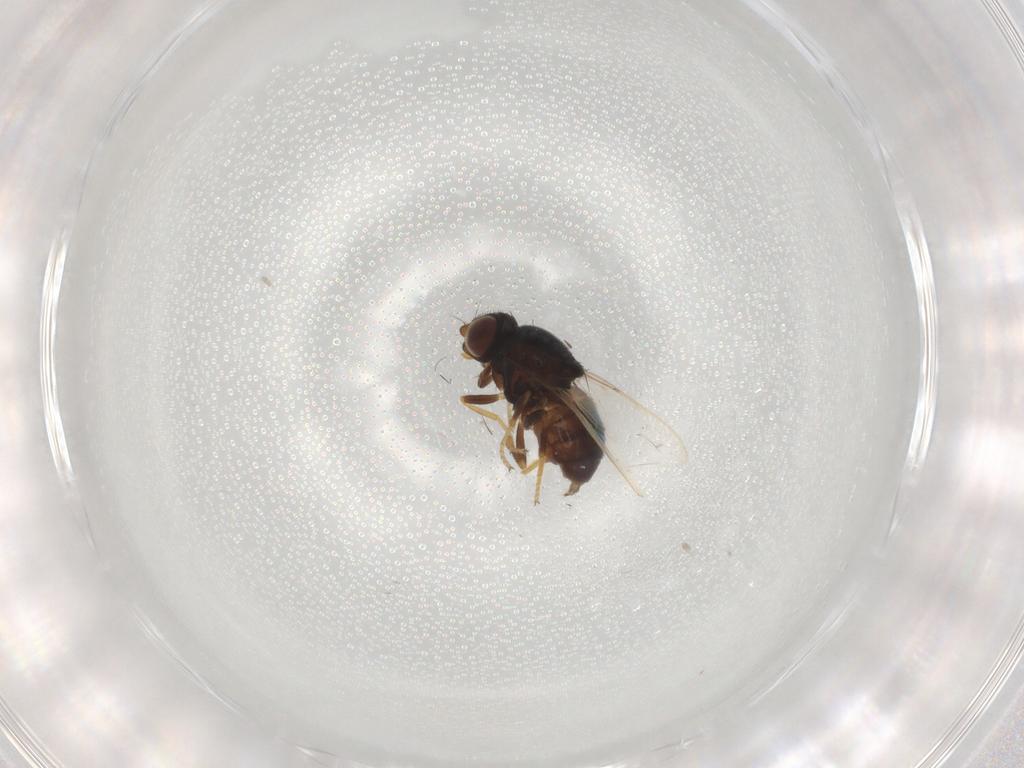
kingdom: Animalia
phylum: Arthropoda
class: Insecta
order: Diptera
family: Chloropidae
